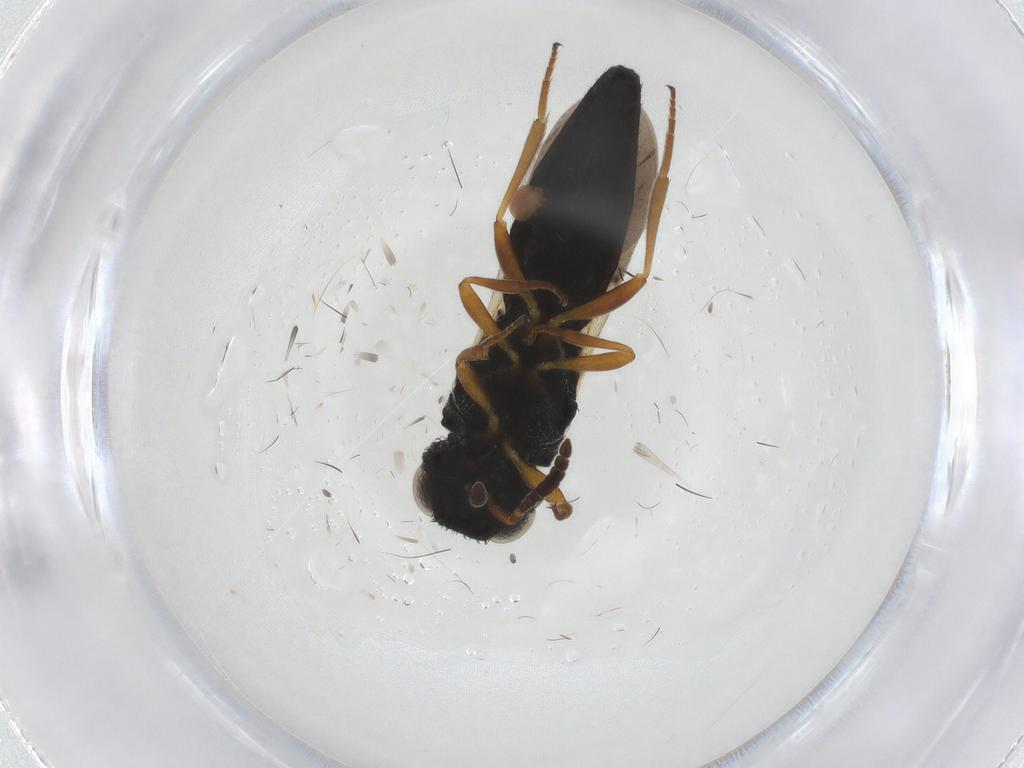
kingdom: Animalia
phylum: Arthropoda
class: Insecta
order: Hymenoptera
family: Scelionidae
